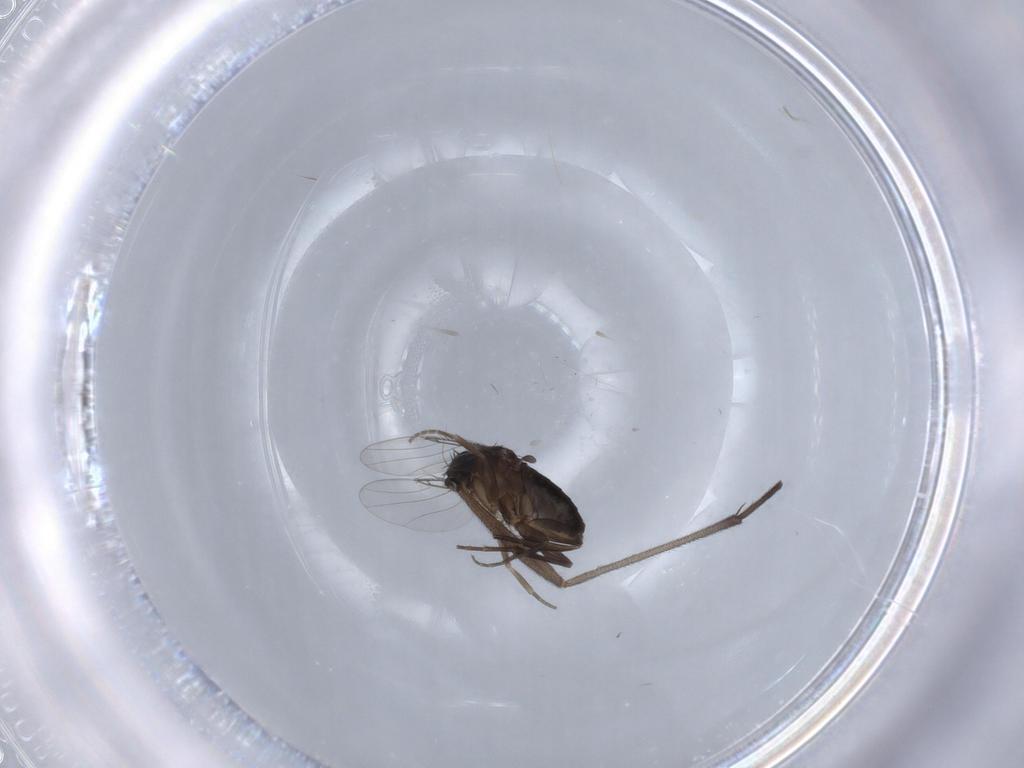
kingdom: Animalia
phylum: Arthropoda
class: Insecta
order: Diptera
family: Phoridae
